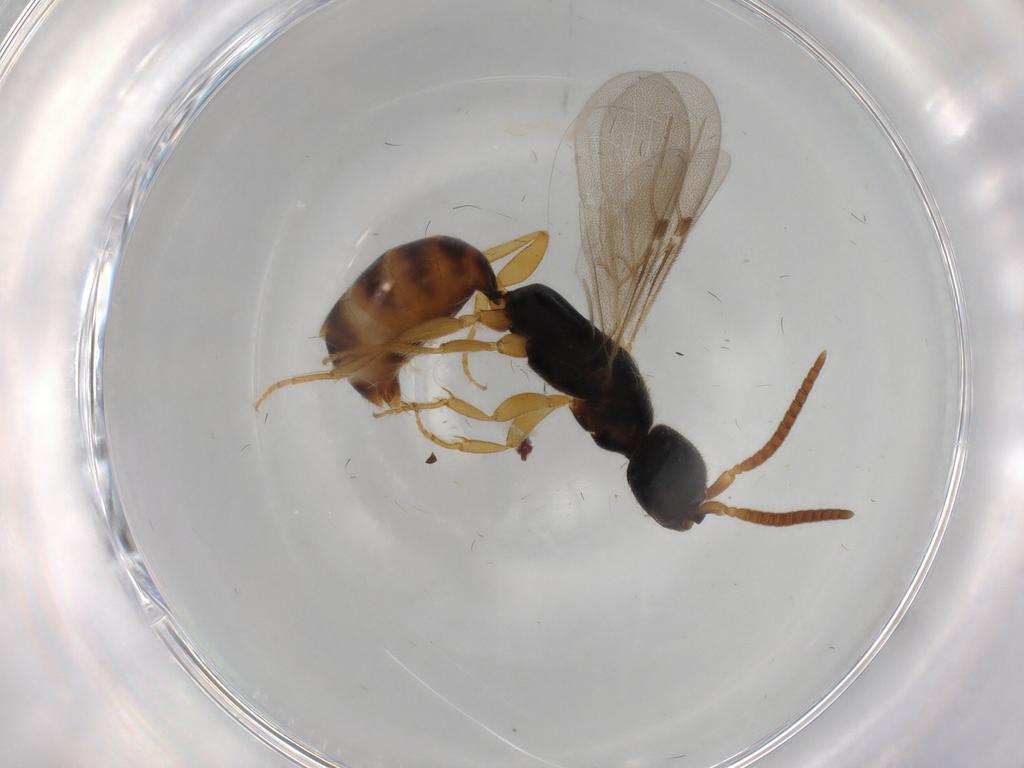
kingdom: Animalia
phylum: Arthropoda
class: Insecta
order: Hymenoptera
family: Bethylidae
